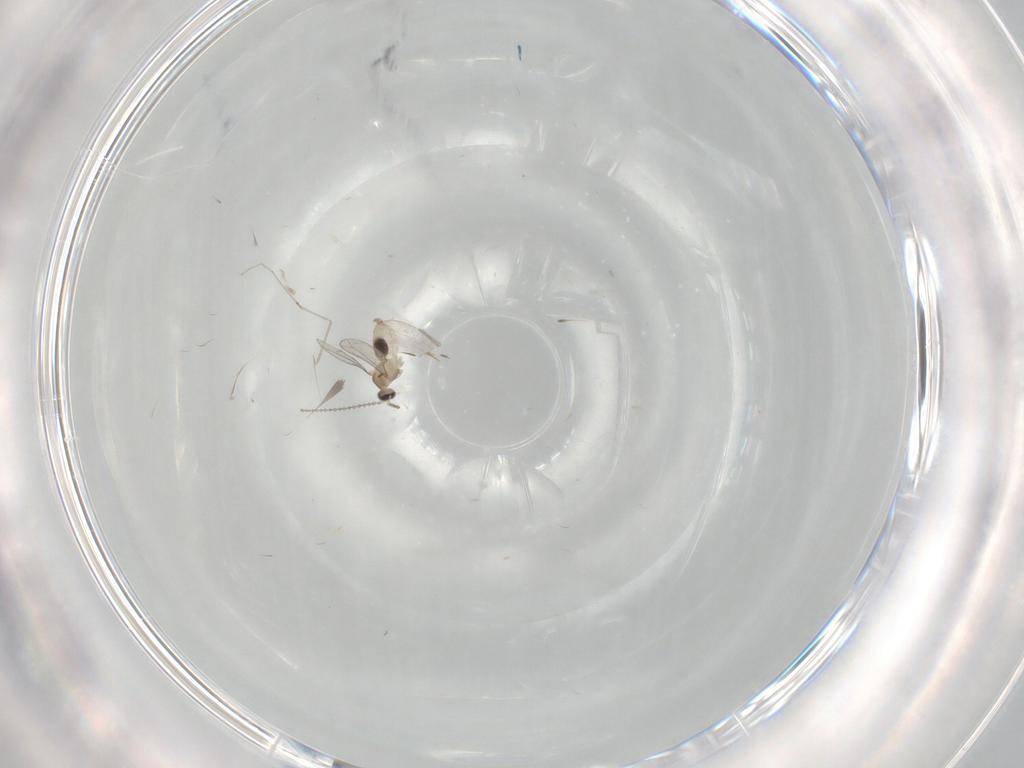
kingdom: Animalia
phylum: Arthropoda
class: Insecta
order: Diptera
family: Cecidomyiidae
